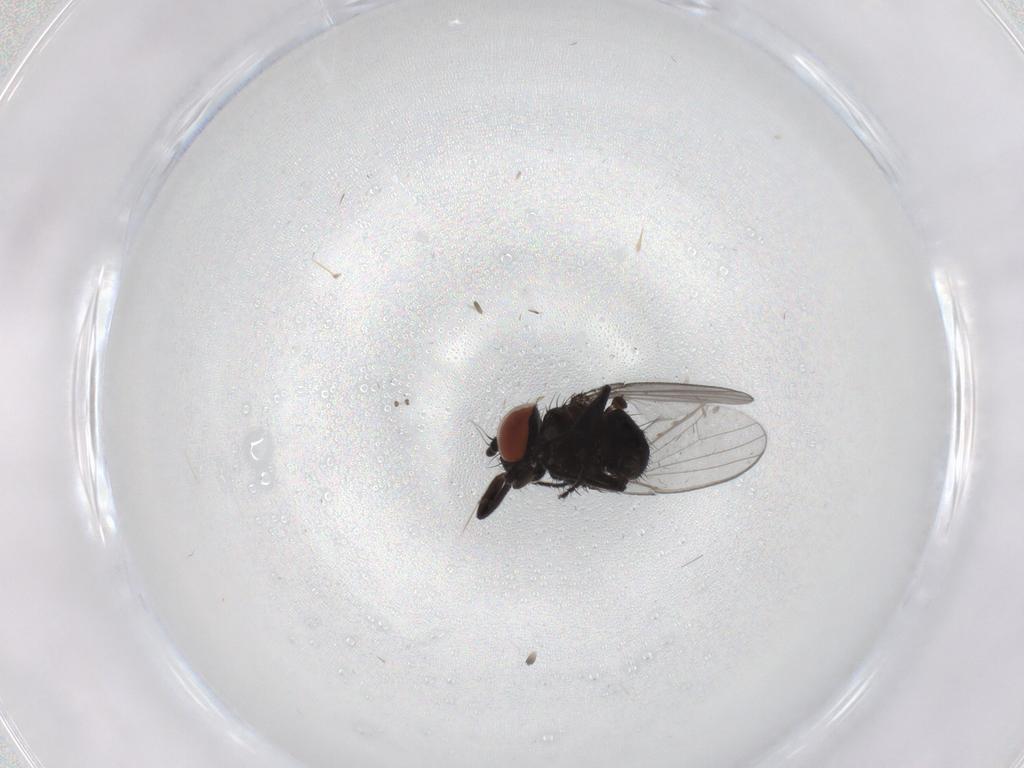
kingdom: Animalia
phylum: Arthropoda
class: Insecta
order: Diptera
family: Milichiidae
